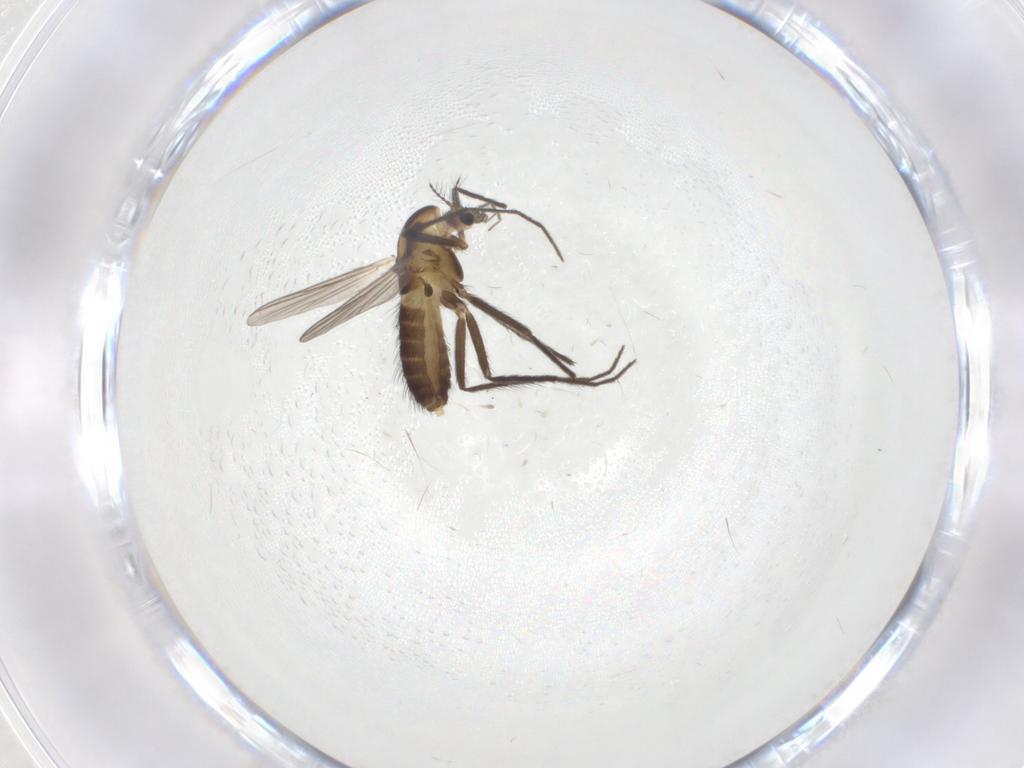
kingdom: Animalia
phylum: Arthropoda
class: Insecta
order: Diptera
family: Chironomidae
